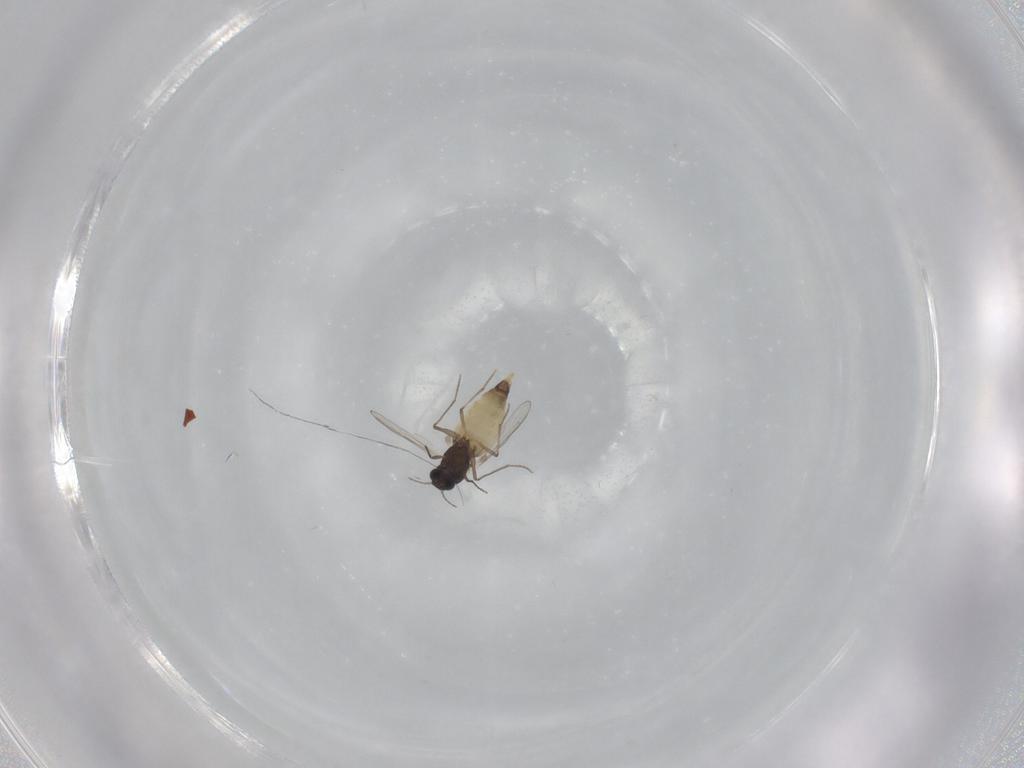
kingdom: Animalia
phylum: Arthropoda
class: Insecta
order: Diptera
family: Chironomidae
